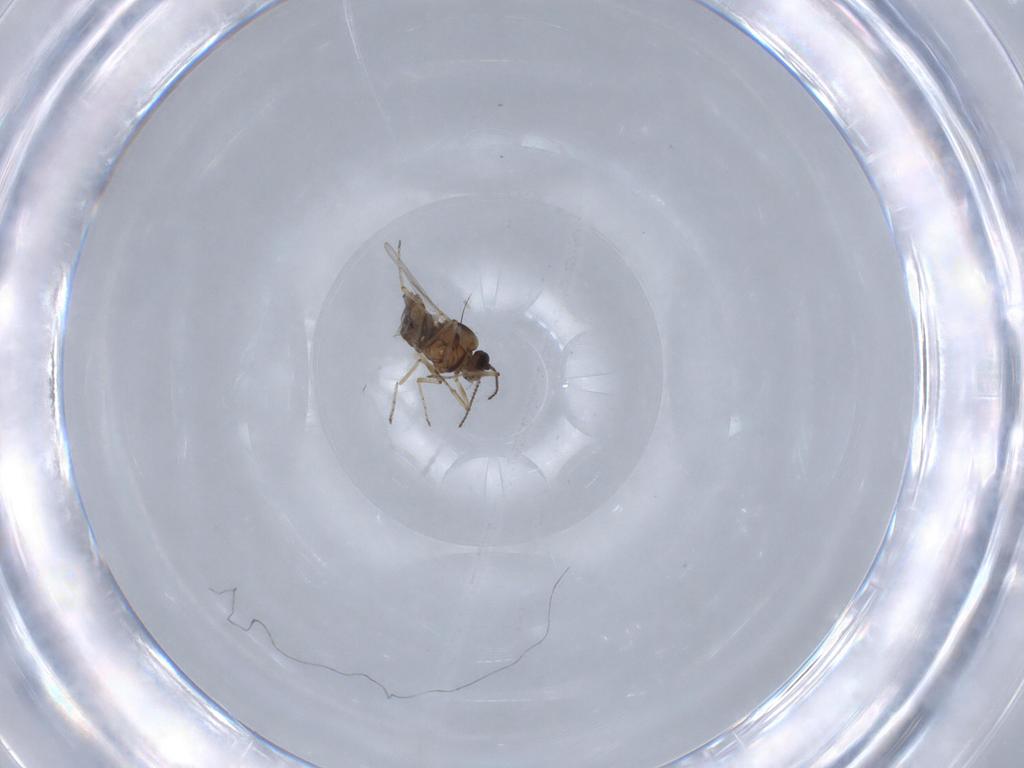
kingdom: Animalia
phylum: Arthropoda
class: Insecta
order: Diptera
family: Ceratopogonidae
